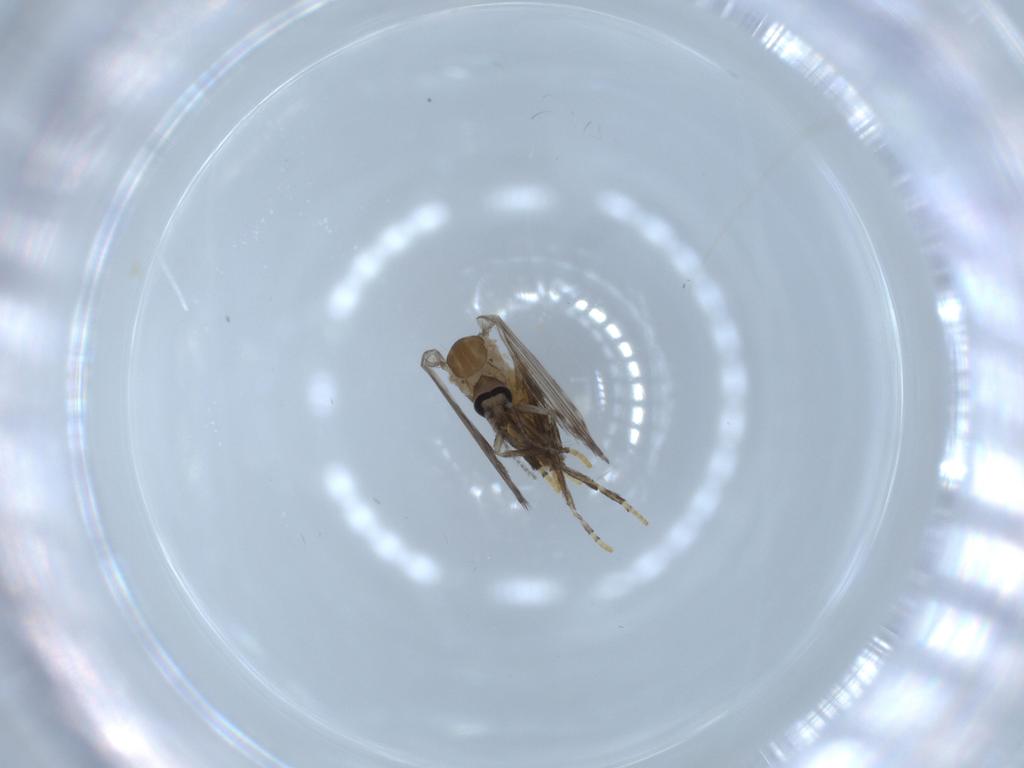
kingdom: Animalia
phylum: Arthropoda
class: Insecta
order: Diptera
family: Psychodidae
